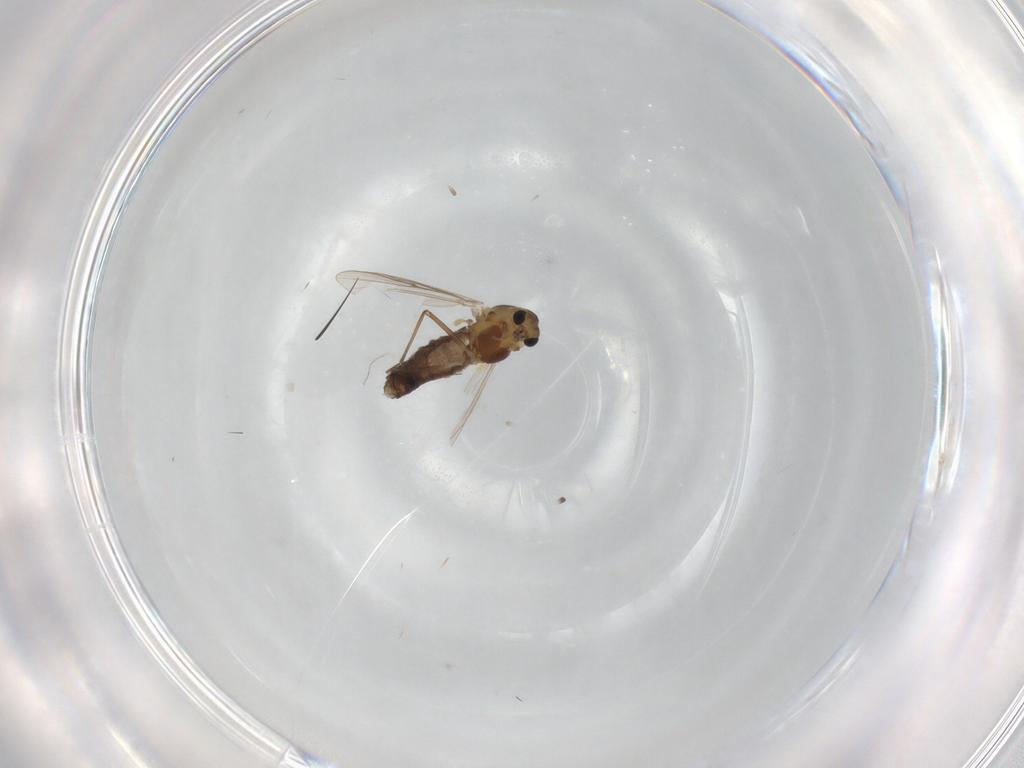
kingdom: Animalia
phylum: Arthropoda
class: Insecta
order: Diptera
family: Chironomidae
